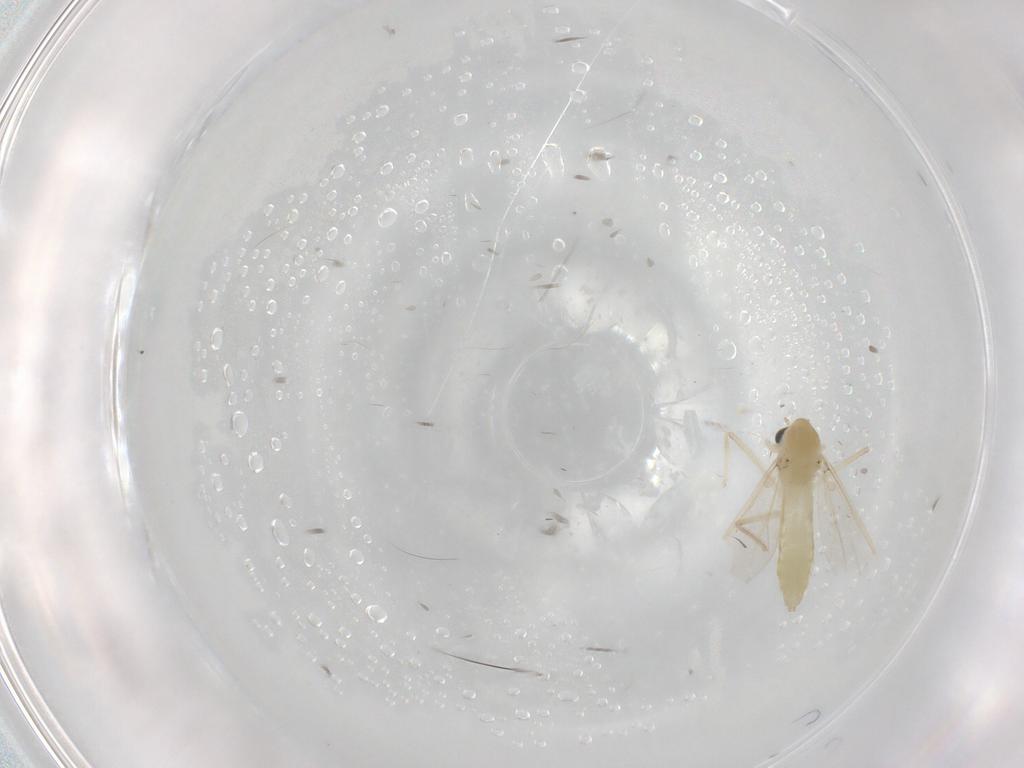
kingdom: Animalia
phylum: Arthropoda
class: Insecta
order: Diptera
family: Chironomidae
